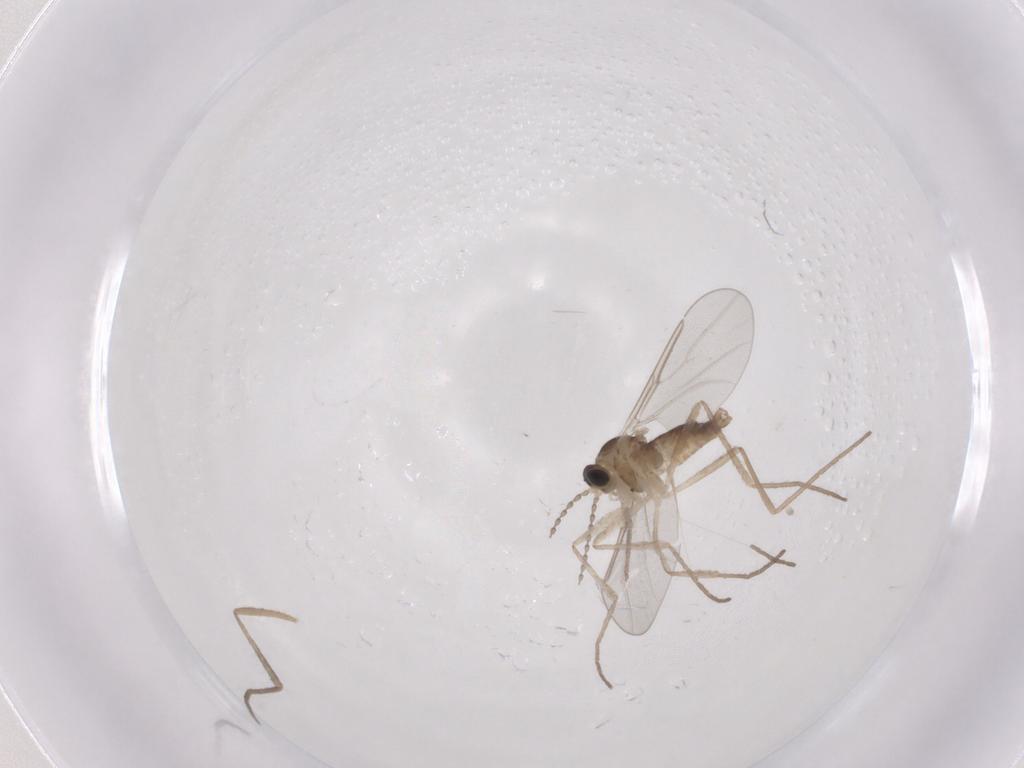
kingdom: Animalia
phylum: Arthropoda
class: Insecta
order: Diptera
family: Cecidomyiidae
